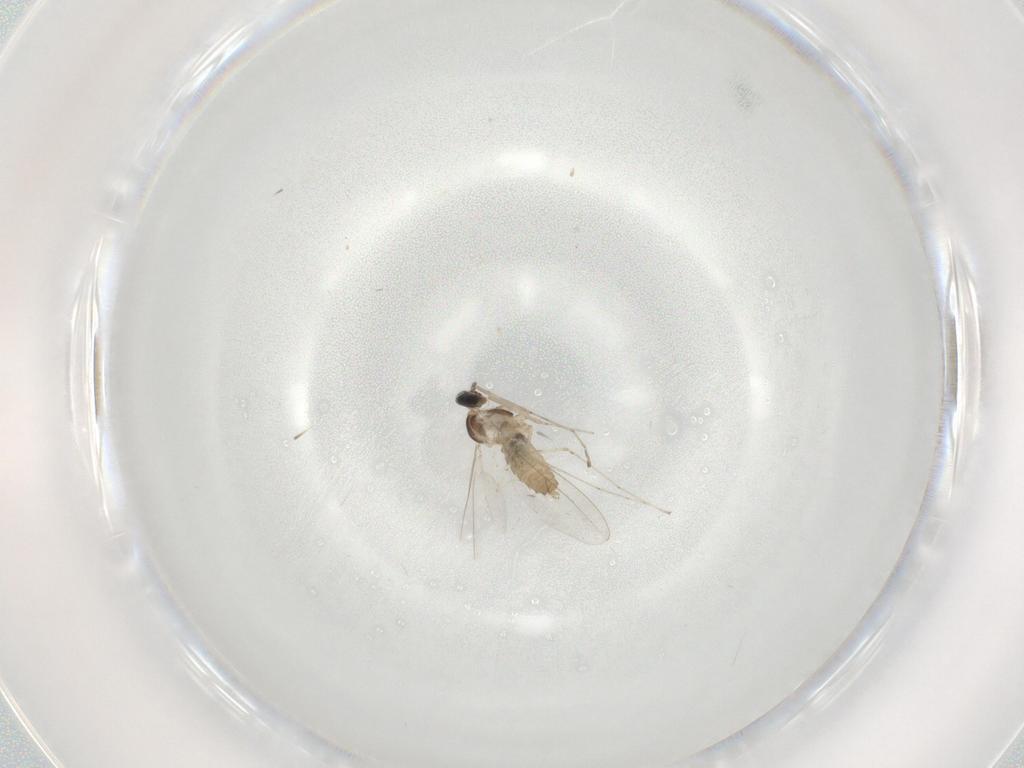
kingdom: Animalia
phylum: Arthropoda
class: Insecta
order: Diptera
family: Cecidomyiidae
